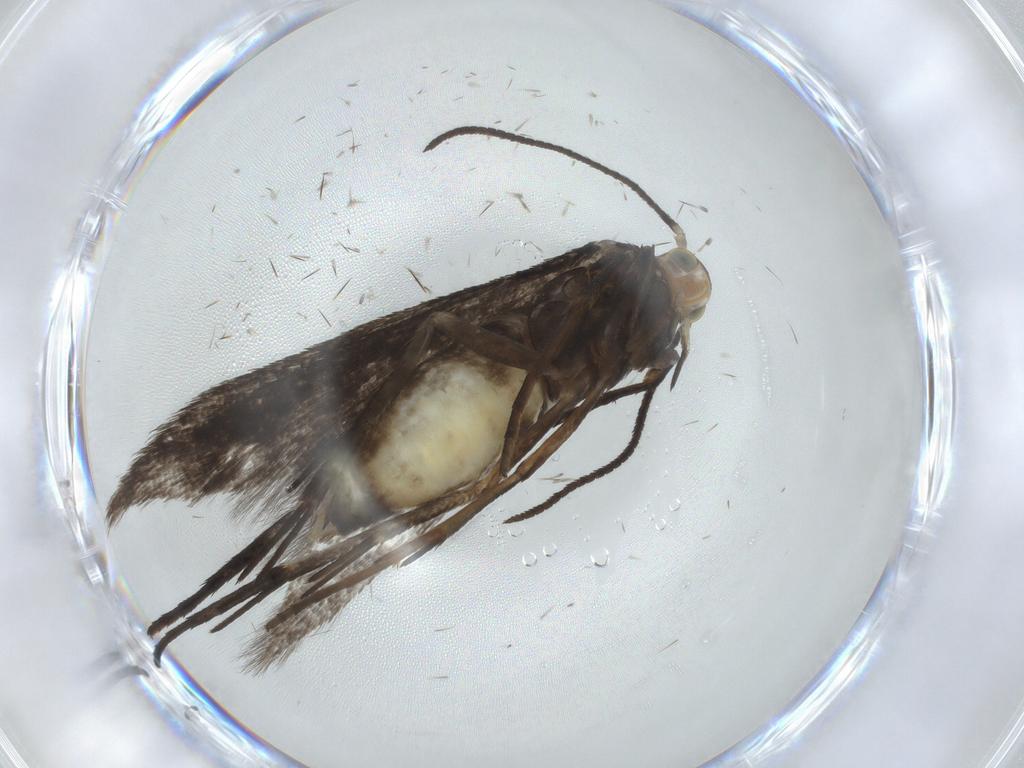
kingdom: Animalia
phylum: Arthropoda
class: Insecta
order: Lepidoptera
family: Schreckensteiniidae
